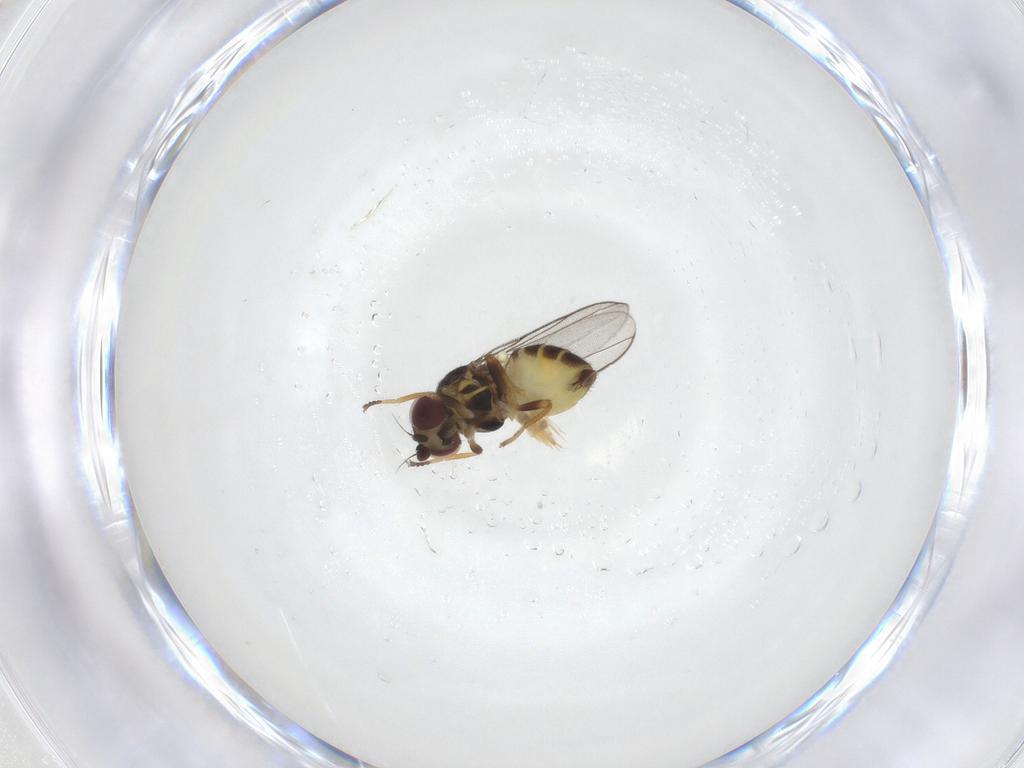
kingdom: Animalia
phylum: Arthropoda
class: Insecta
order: Diptera
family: Chloropidae
